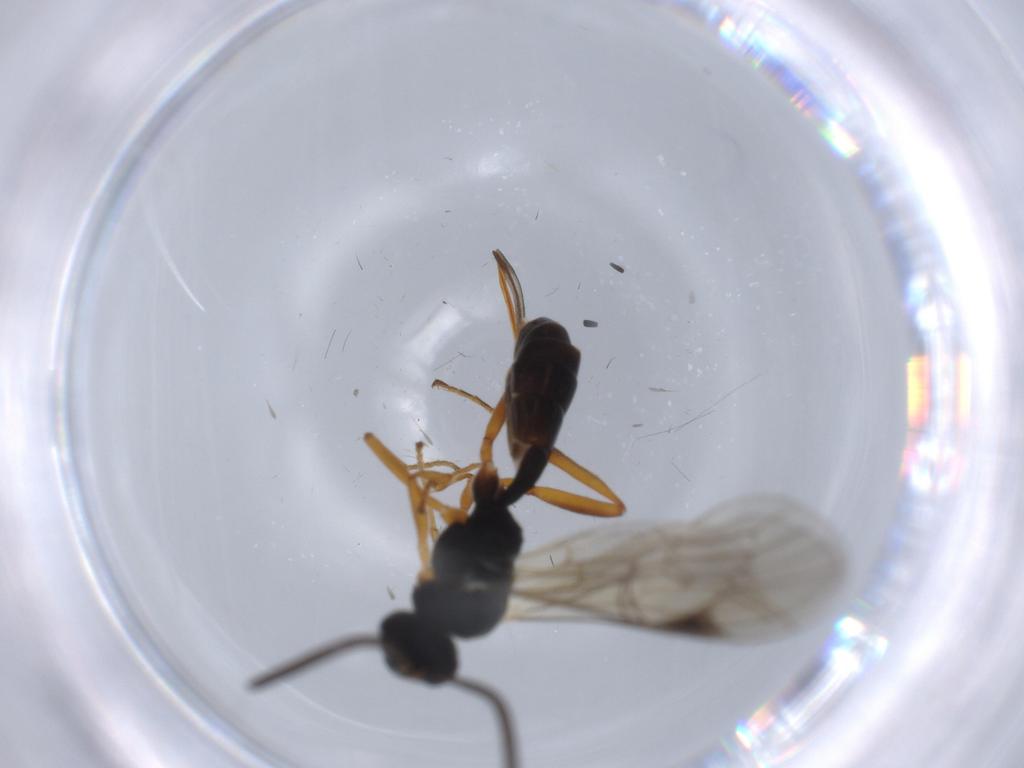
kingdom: Animalia
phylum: Arthropoda
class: Insecta
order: Hymenoptera
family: Ichneumonidae
